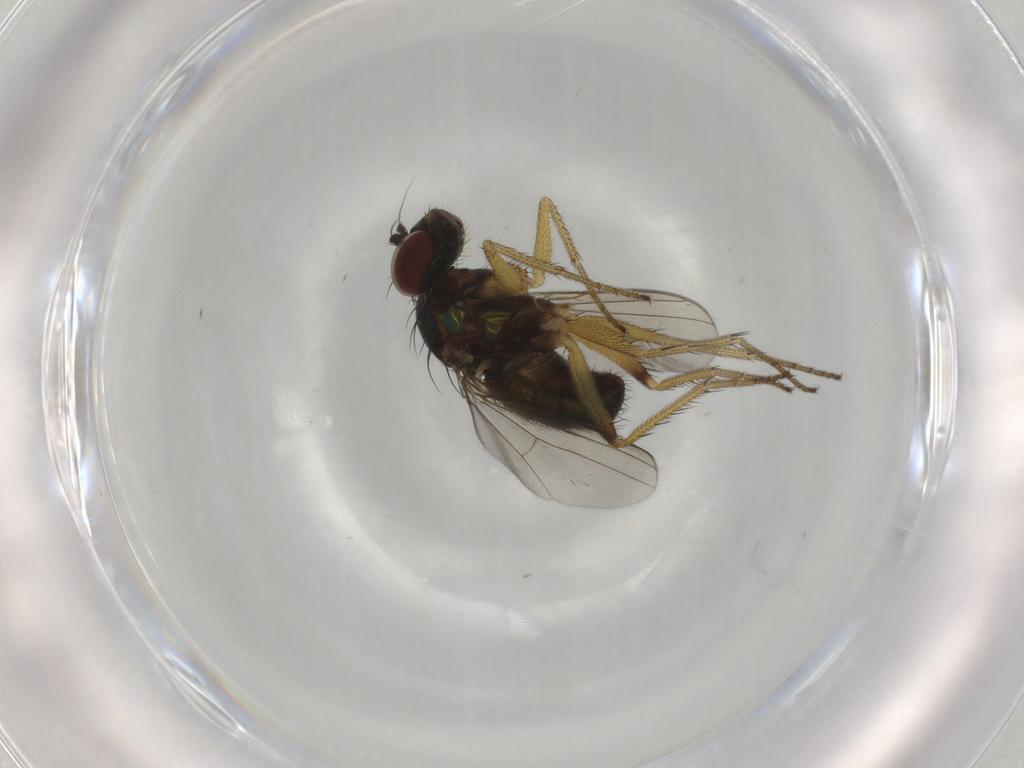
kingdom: Animalia
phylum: Arthropoda
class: Insecta
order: Diptera
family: Dolichopodidae
